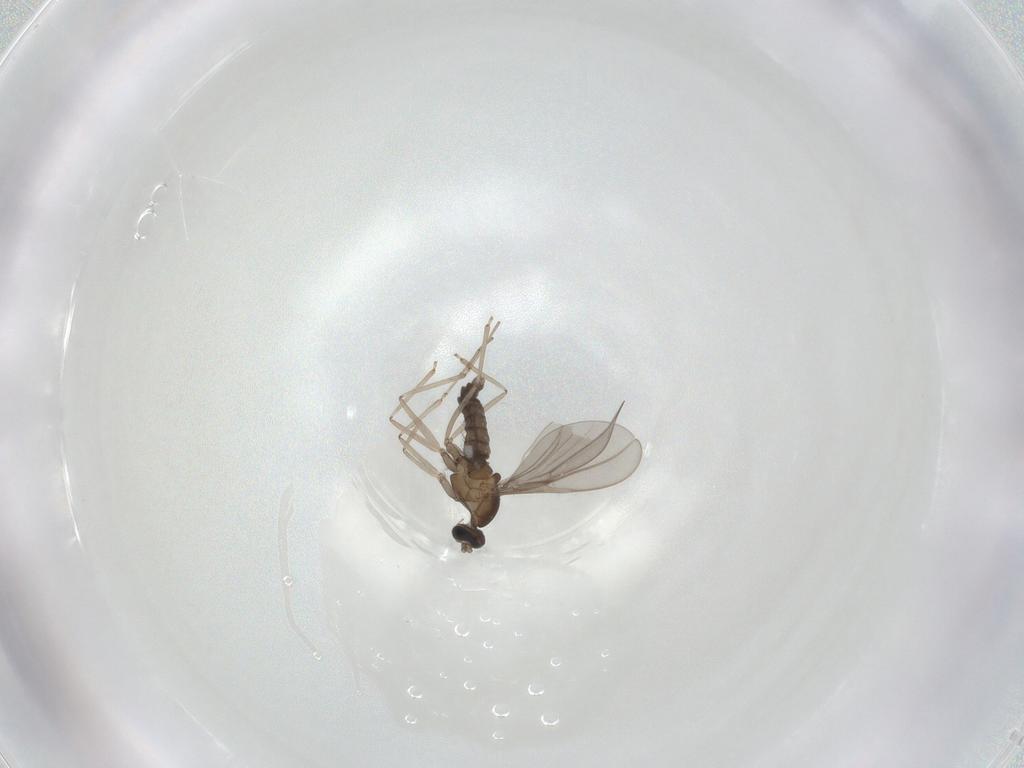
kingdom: Animalia
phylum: Arthropoda
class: Insecta
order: Diptera
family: Cecidomyiidae
